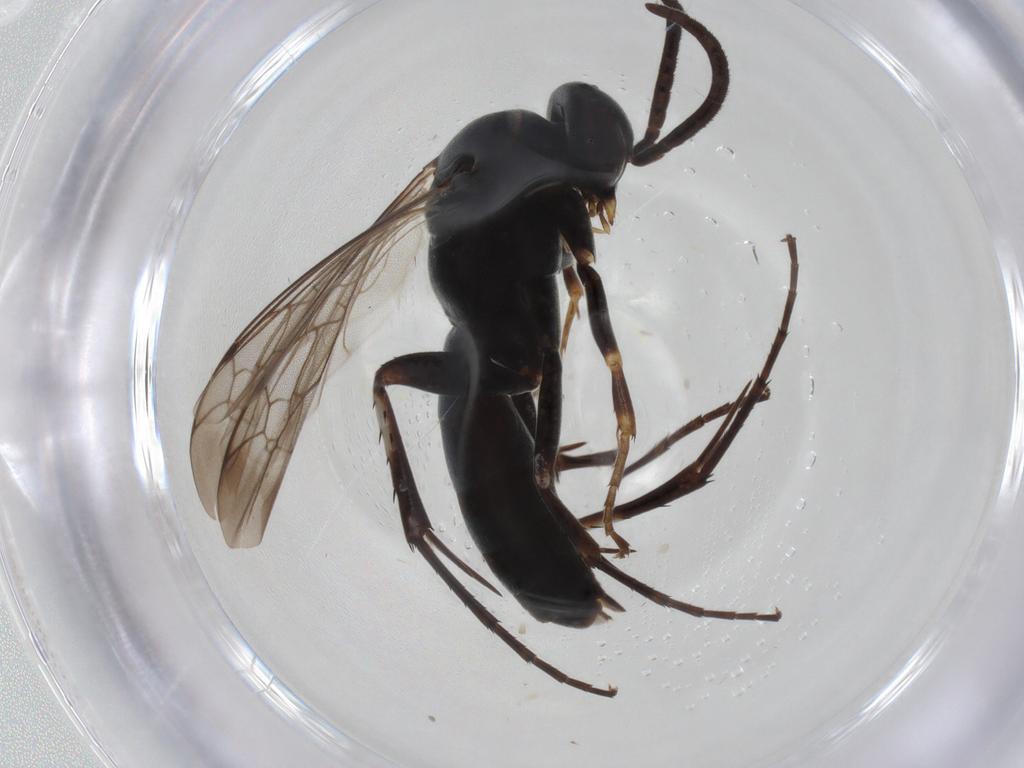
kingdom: Animalia
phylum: Arthropoda
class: Insecta
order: Hymenoptera
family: Pompilidae
